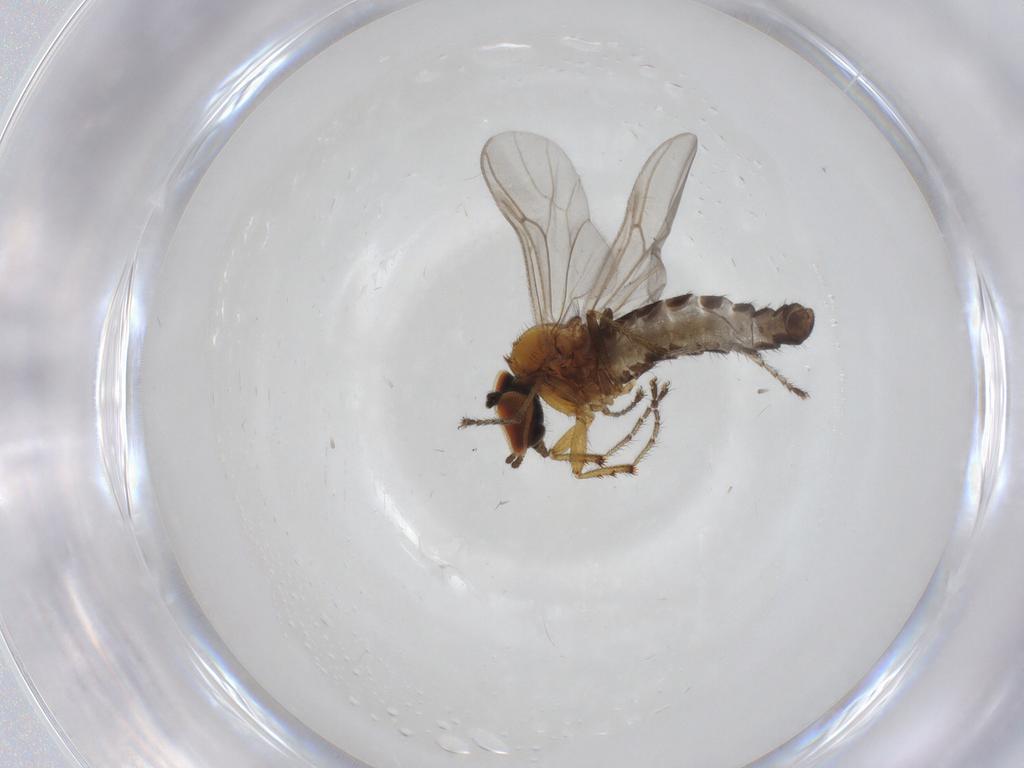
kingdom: Animalia
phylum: Arthropoda
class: Insecta
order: Diptera
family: Bibionidae
